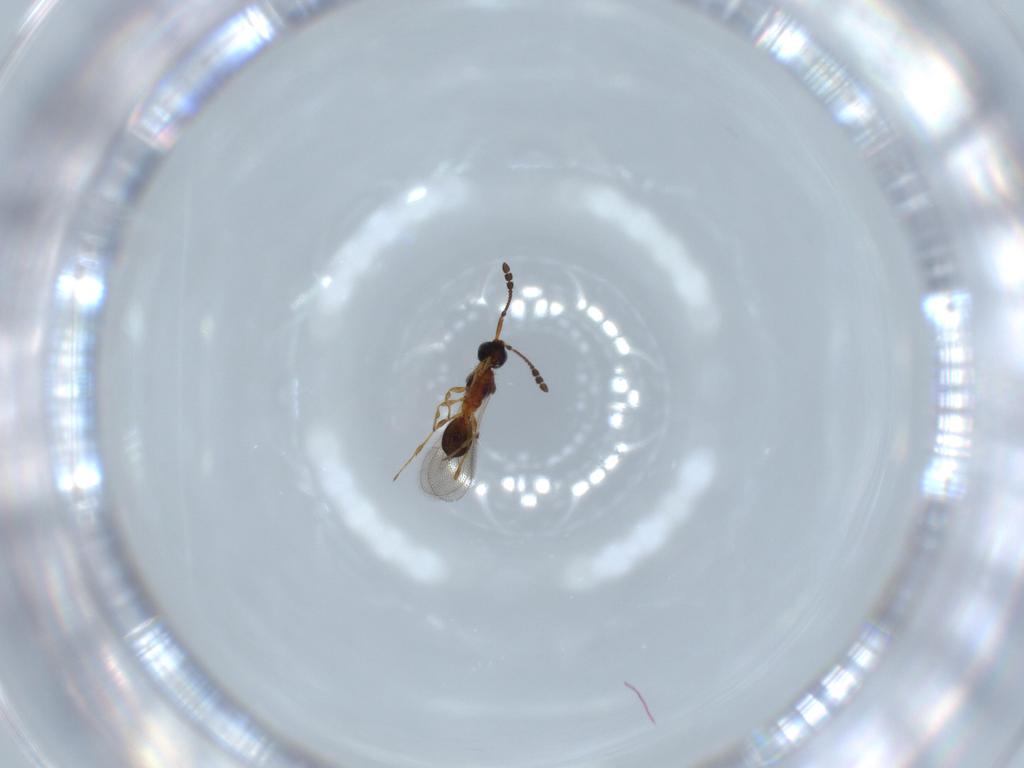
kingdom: Animalia
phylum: Arthropoda
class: Insecta
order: Hymenoptera
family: Diapriidae
